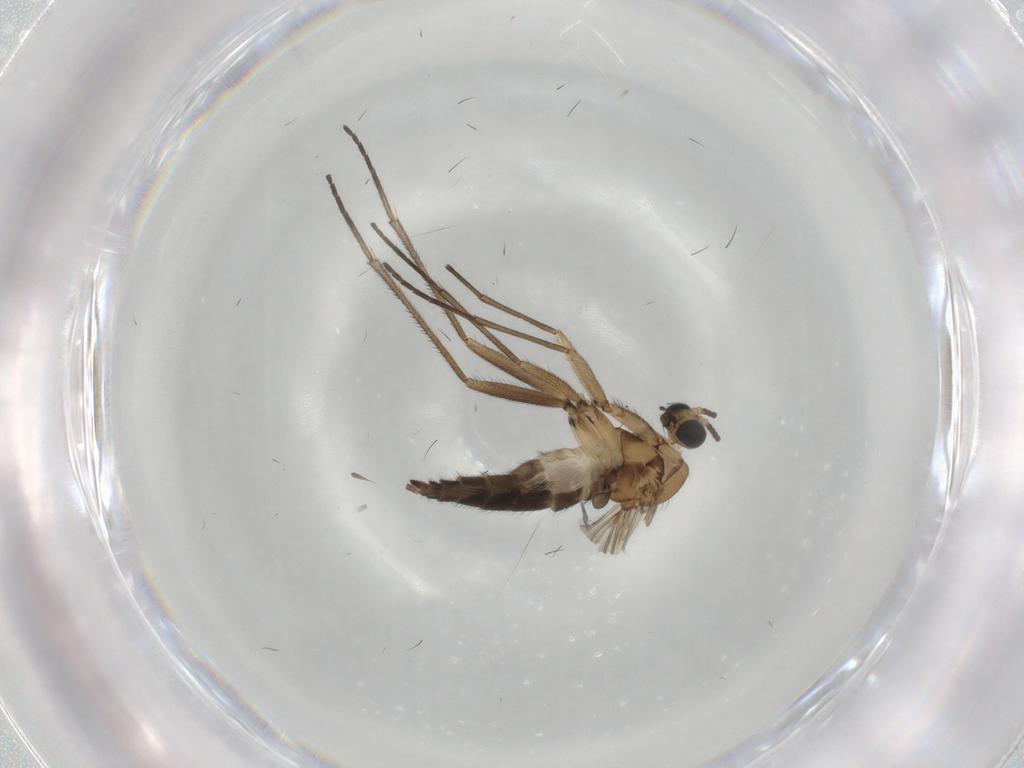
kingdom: Animalia
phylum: Arthropoda
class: Insecta
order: Diptera
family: Sciaridae
